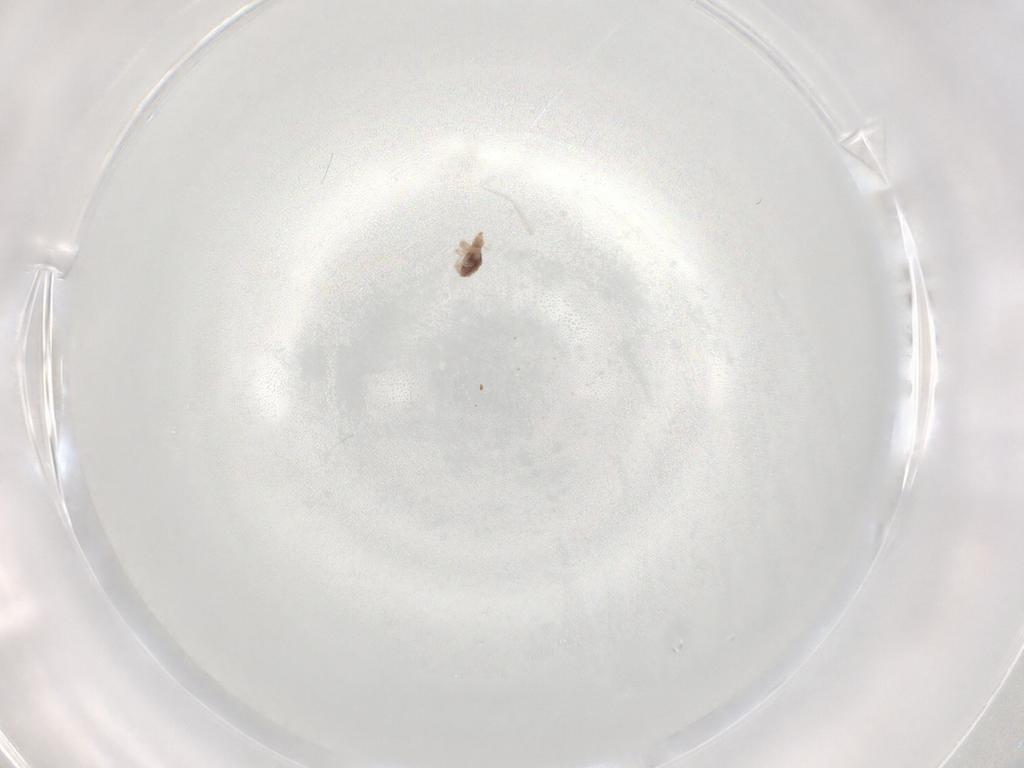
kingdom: Animalia
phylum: Arthropoda
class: Arachnida
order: Trombidiformes
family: Bdellidae
